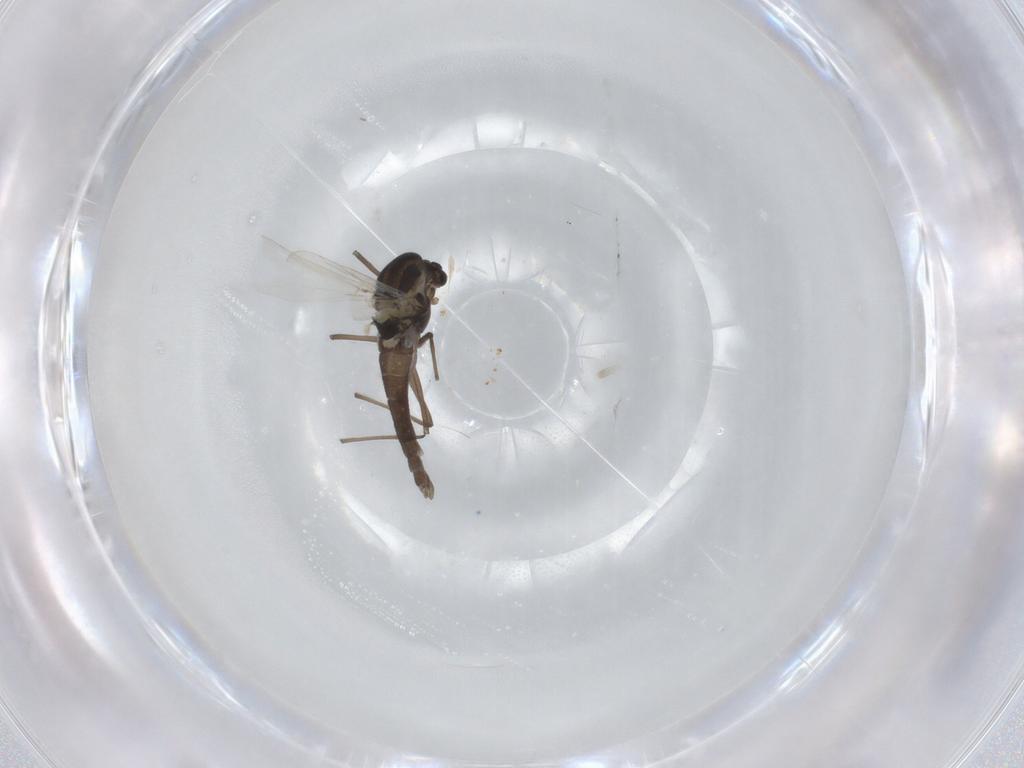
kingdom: Animalia
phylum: Arthropoda
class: Insecta
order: Diptera
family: Chironomidae
